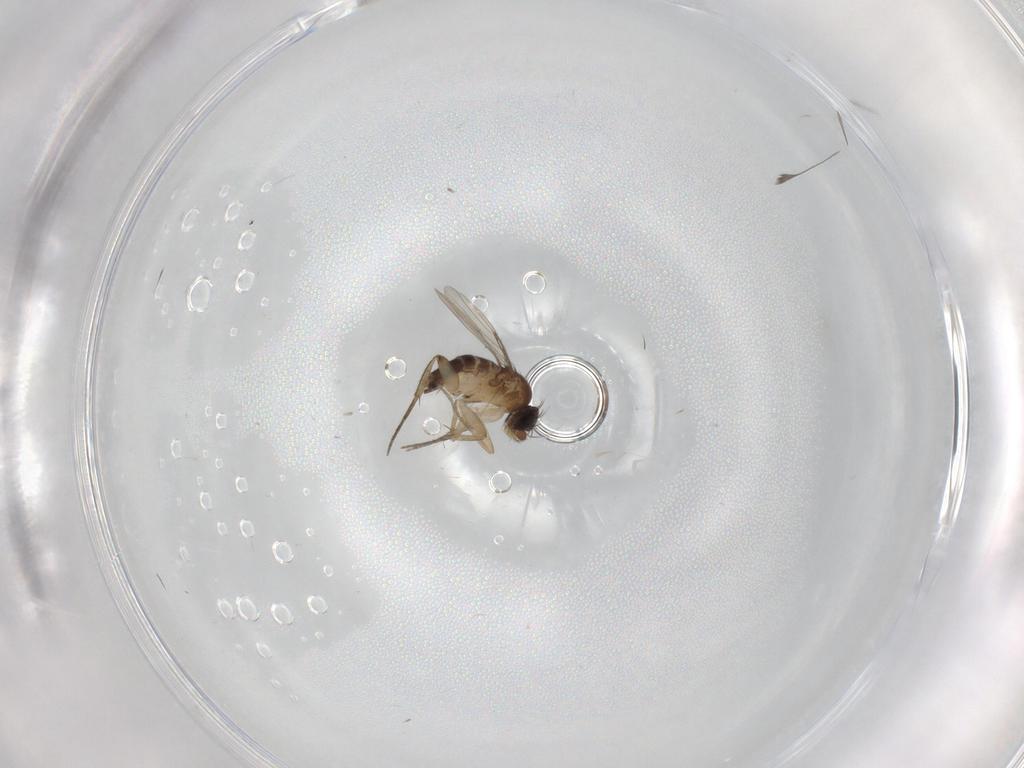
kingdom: Animalia
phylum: Arthropoda
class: Insecta
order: Diptera
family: Phoridae
